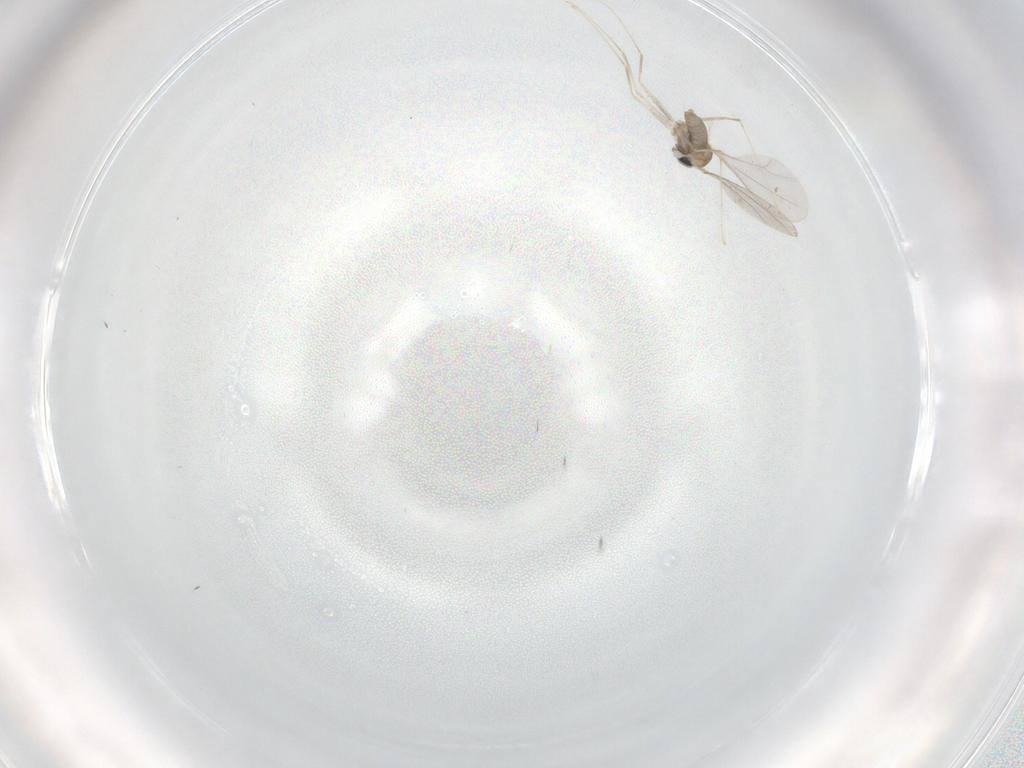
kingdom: Animalia
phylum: Arthropoda
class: Insecta
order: Diptera
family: Cecidomyiidae
